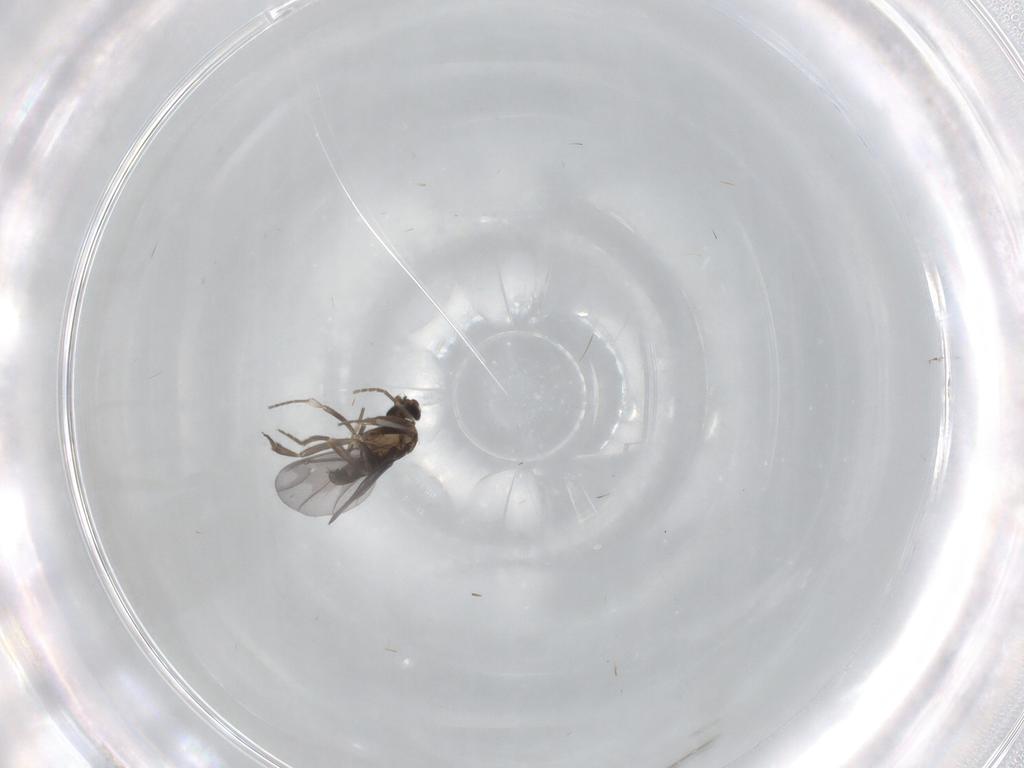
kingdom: Animalia
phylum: Arthropoda
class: Insecta
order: Diptera
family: Phoridae
